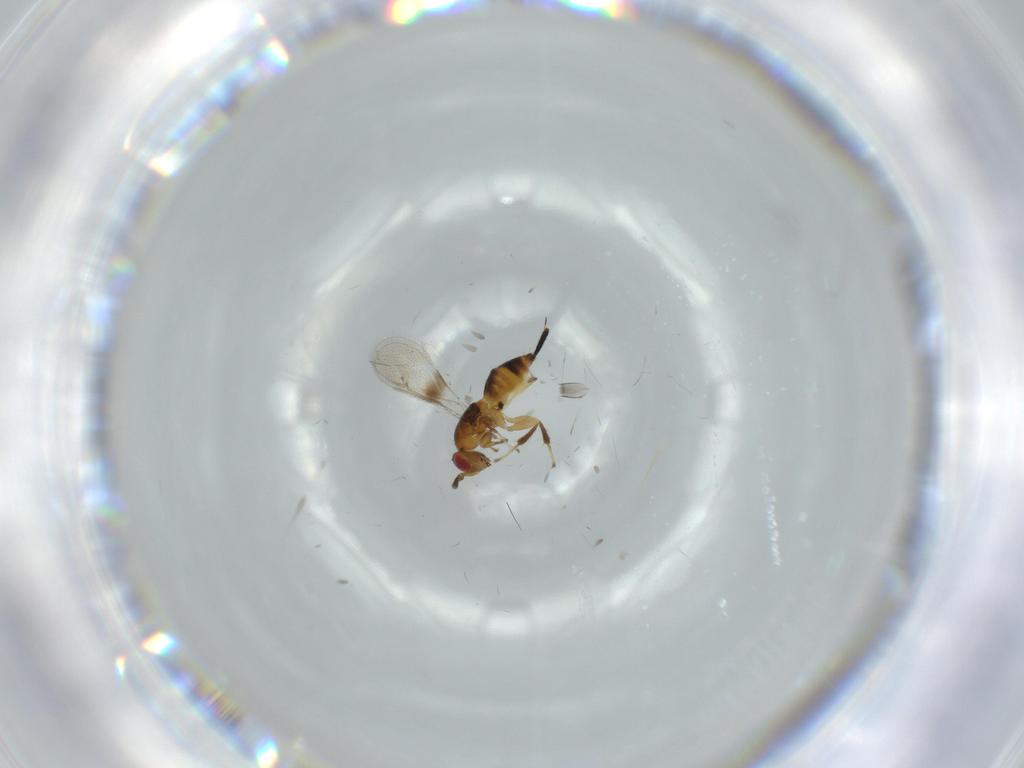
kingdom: Animalia
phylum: Arthropoda
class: Insecta
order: Hymenoptera
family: Torymidae
